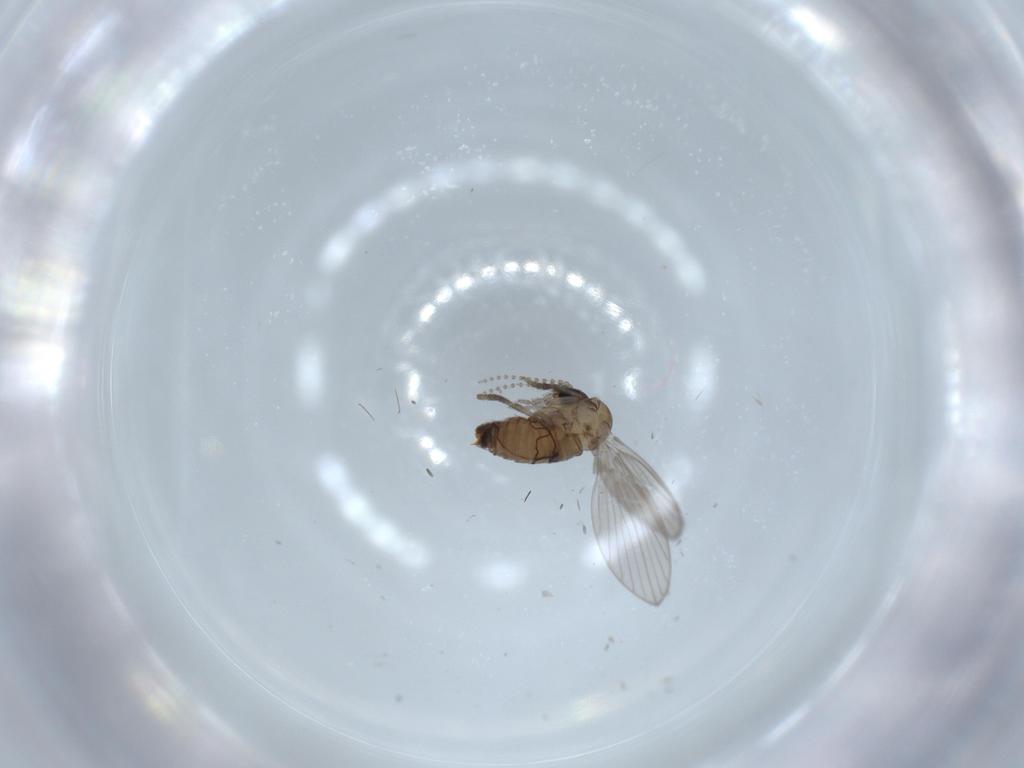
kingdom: Animalia
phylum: Arthropoda
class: Insecta
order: Diptera
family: Psychodidae
